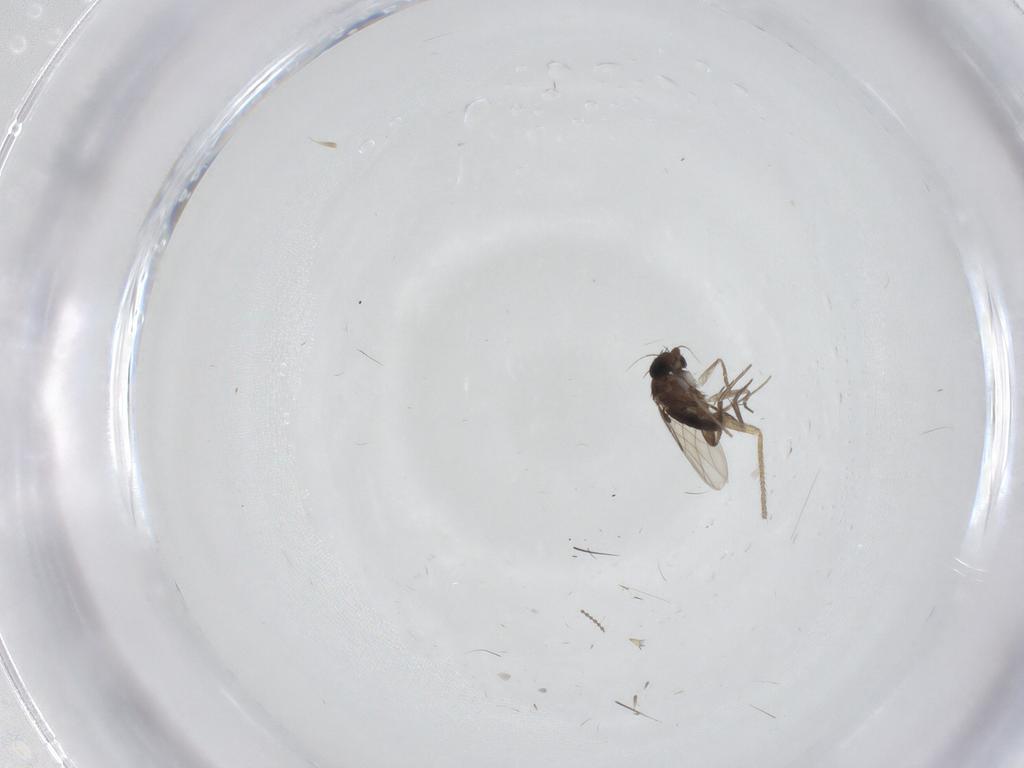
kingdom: Animalia
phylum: Arthropoda
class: Insecta
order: Diptera
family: Phoridae
